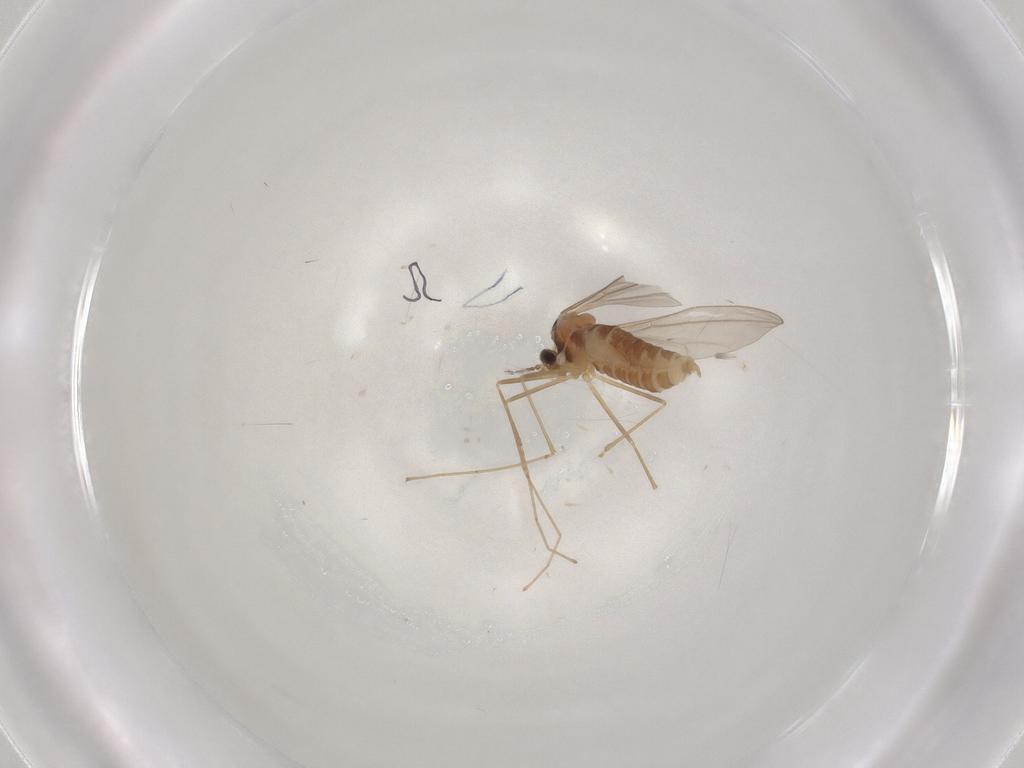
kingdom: Animalia
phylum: Arthropoda
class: Insecta
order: Diptera
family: Cecidomyiidae
